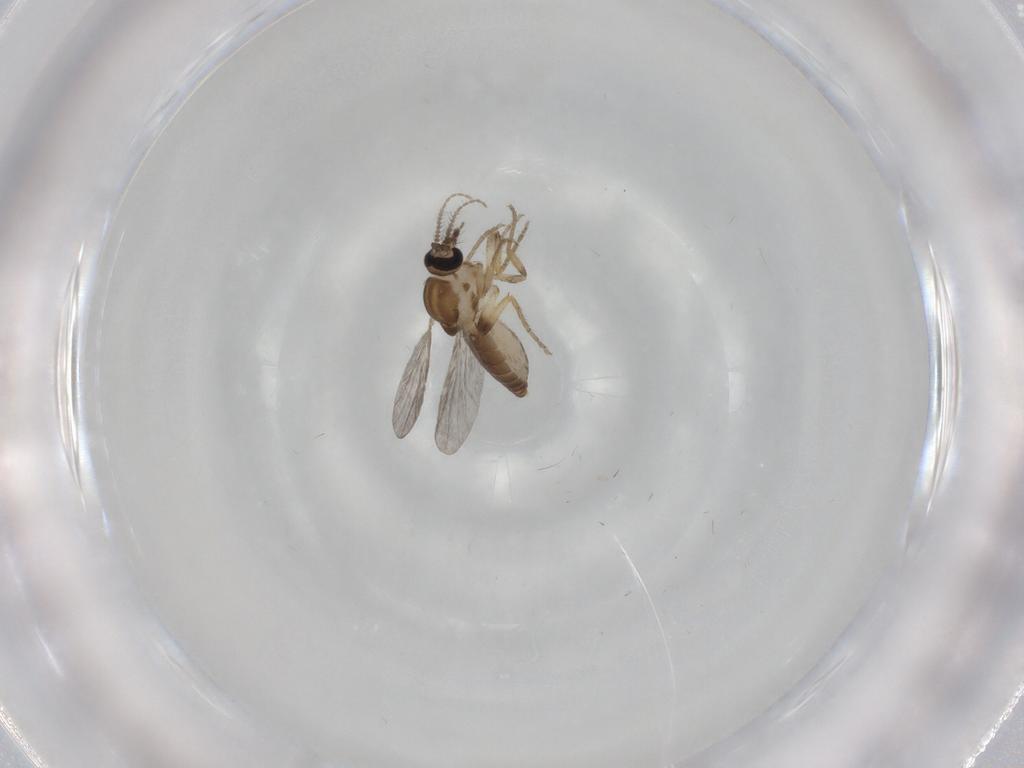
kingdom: Animalia
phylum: Arthropoda
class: Insecta
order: Diptera
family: Ceratopogonidae
